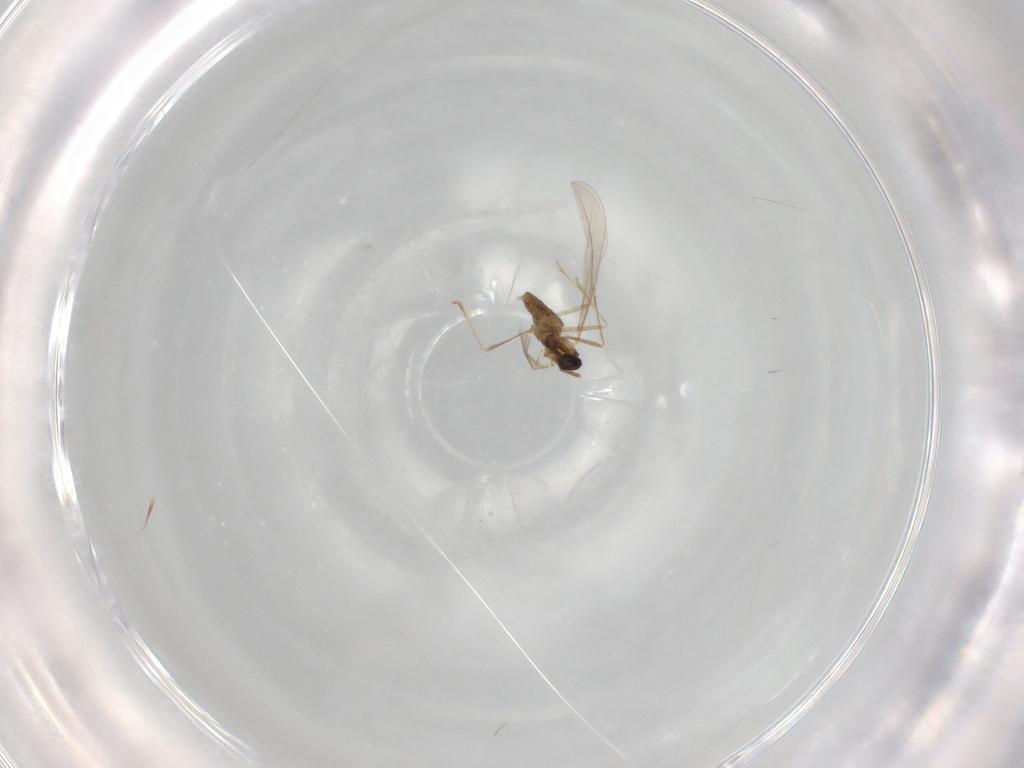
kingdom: Animalia
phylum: Arthropoda
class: Insecta
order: Diptera
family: Cecidomyiidae
